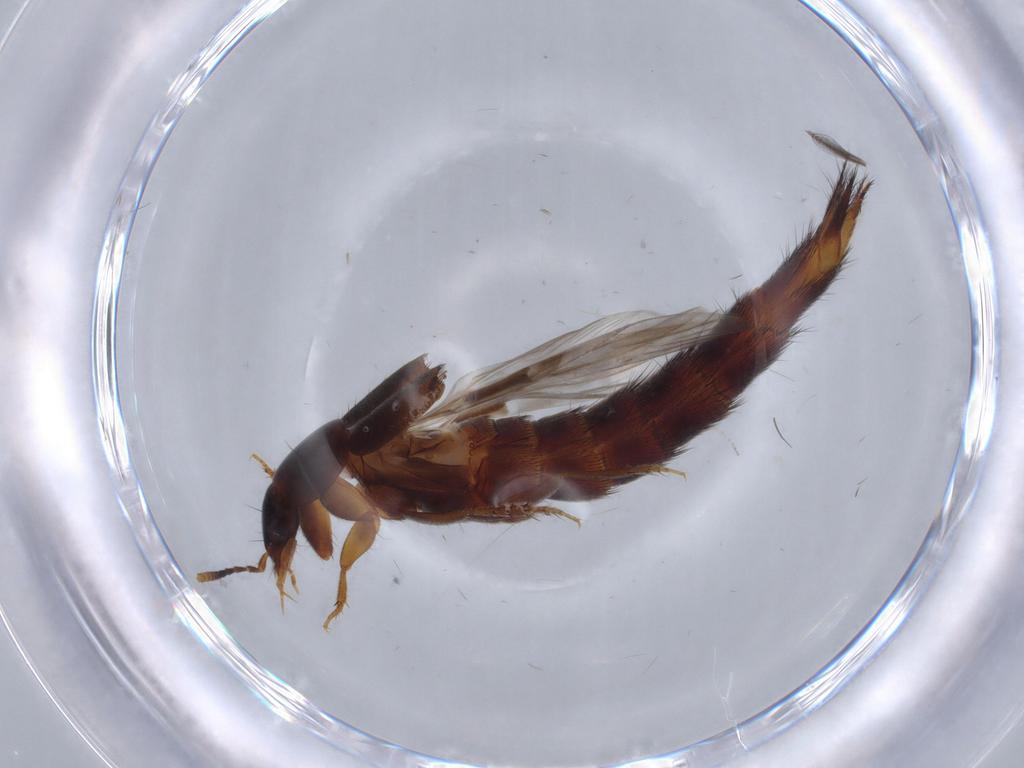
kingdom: Animalia
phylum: Arthropoda
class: Insecta
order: Coleoptera
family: Staphylinidae
